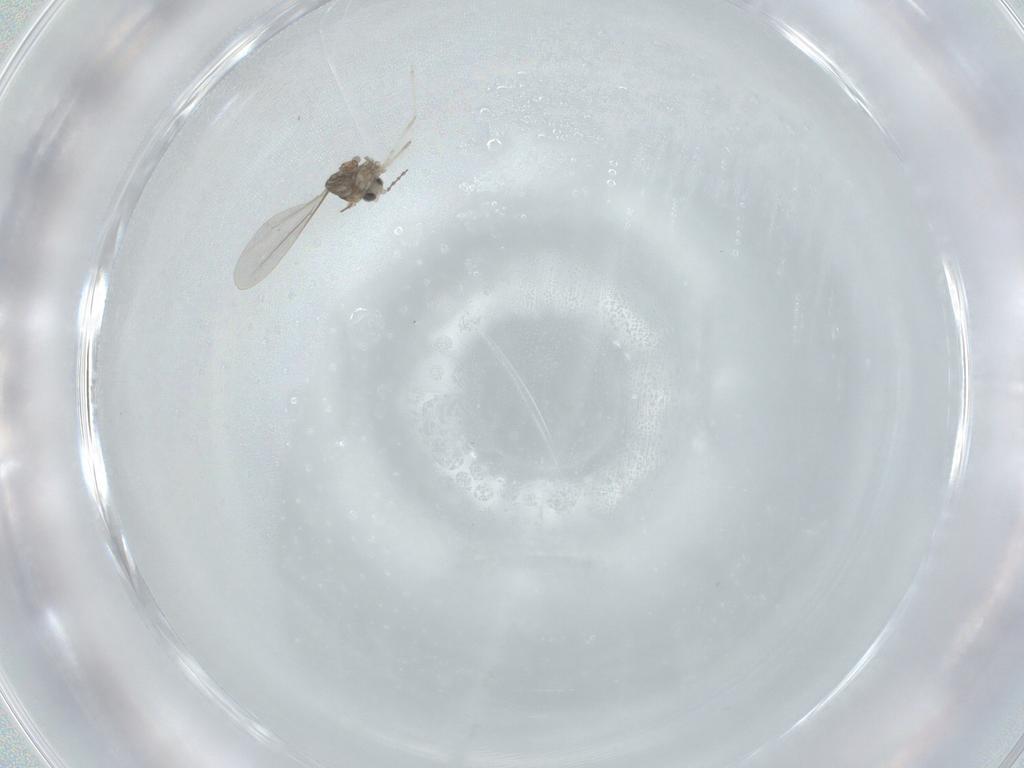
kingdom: Animalia
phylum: Arthropoda
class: Insecta
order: Diptera
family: Cecidomyiidae
